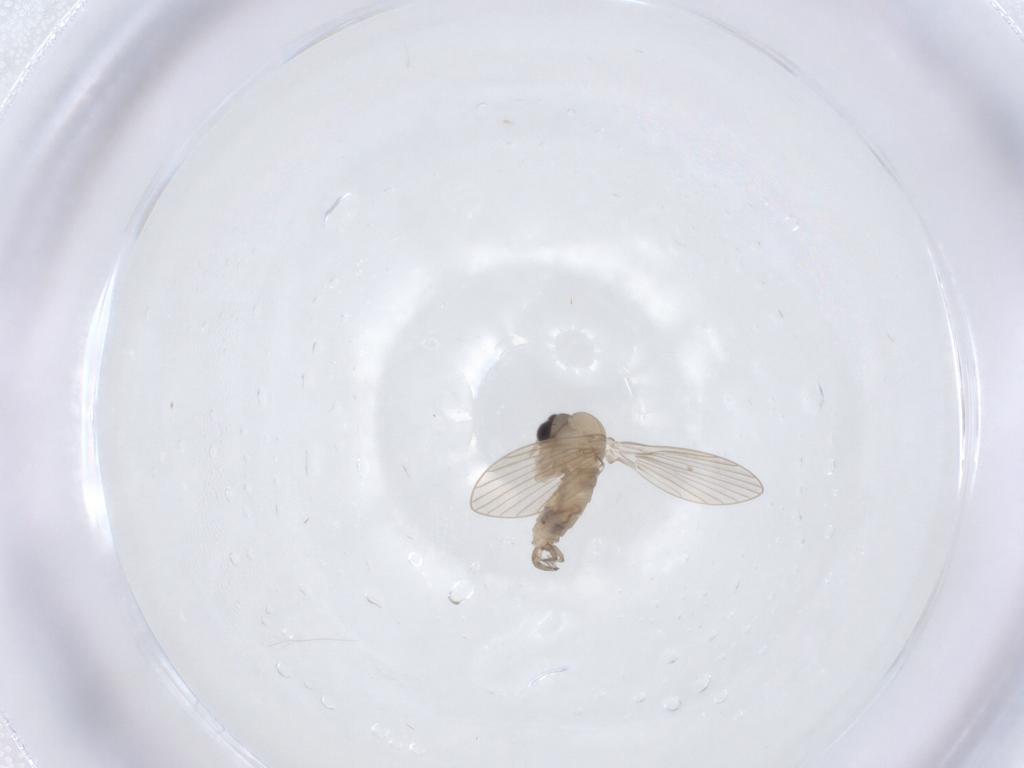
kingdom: Animalia
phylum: Arthropoda
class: Insecta
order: Diptera
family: Psychodidae
